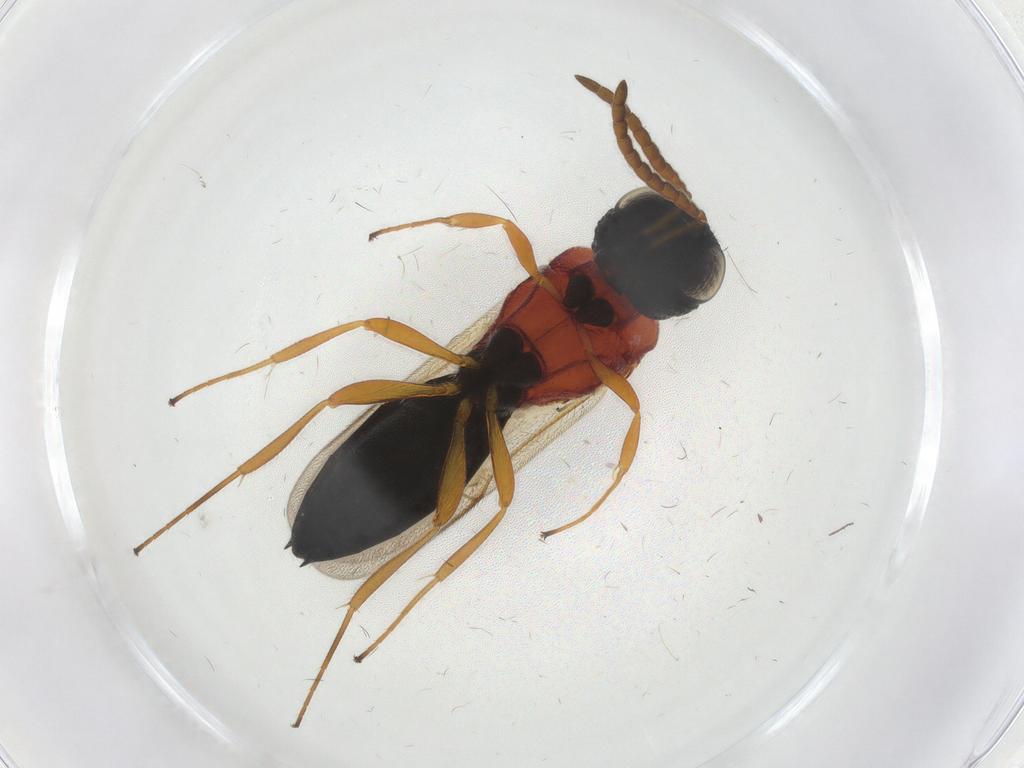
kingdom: Animalia
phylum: Arthropoda
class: Insecta
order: Hymenoptera
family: Scelionidae
